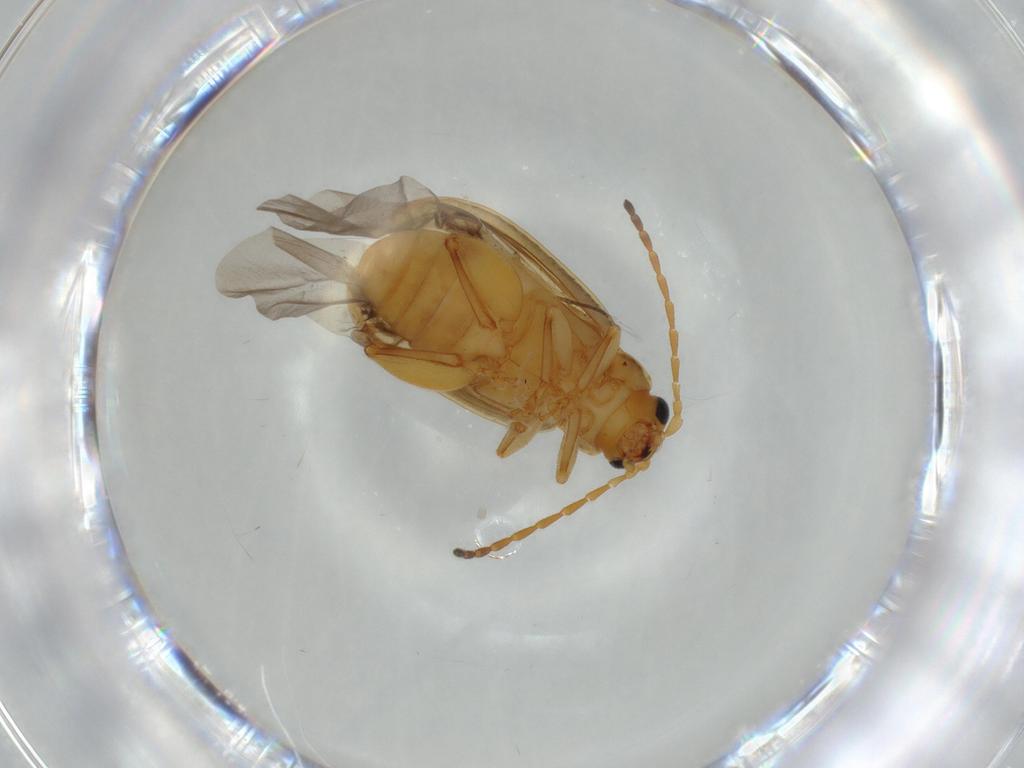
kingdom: Animalia
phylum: Arthropoda
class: Insecta
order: Coleoptera
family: Chrysomelidae
